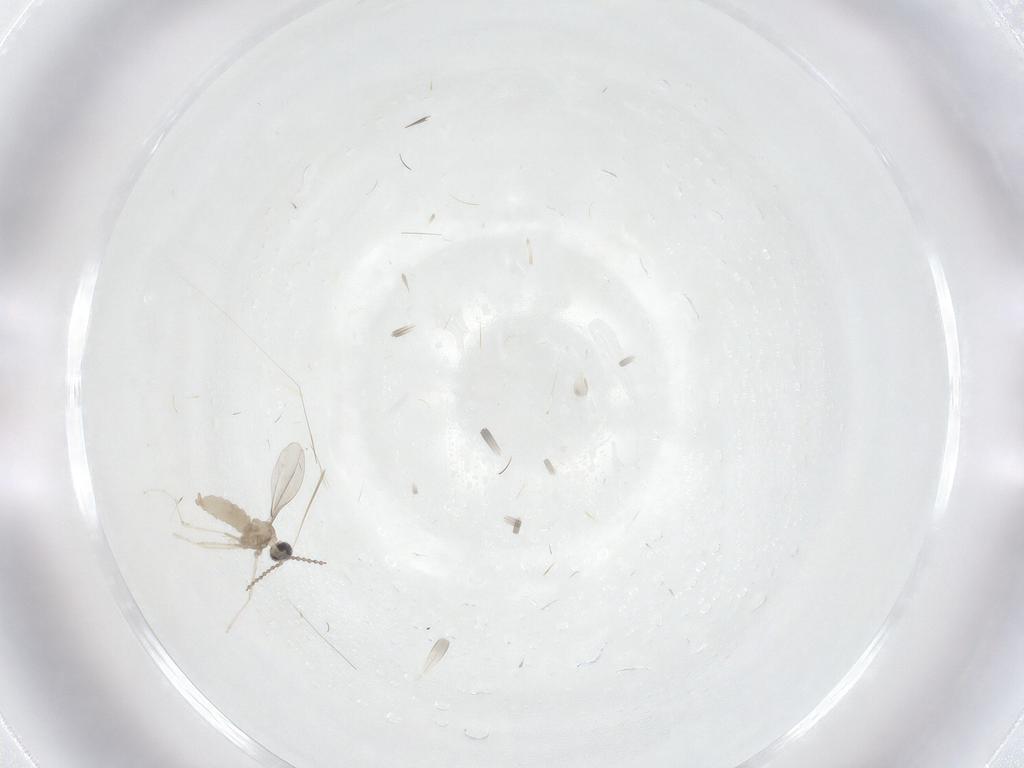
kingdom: Animalia
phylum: Arthropoda
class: Insecta
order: Diptera
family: Cecidomyiidae
